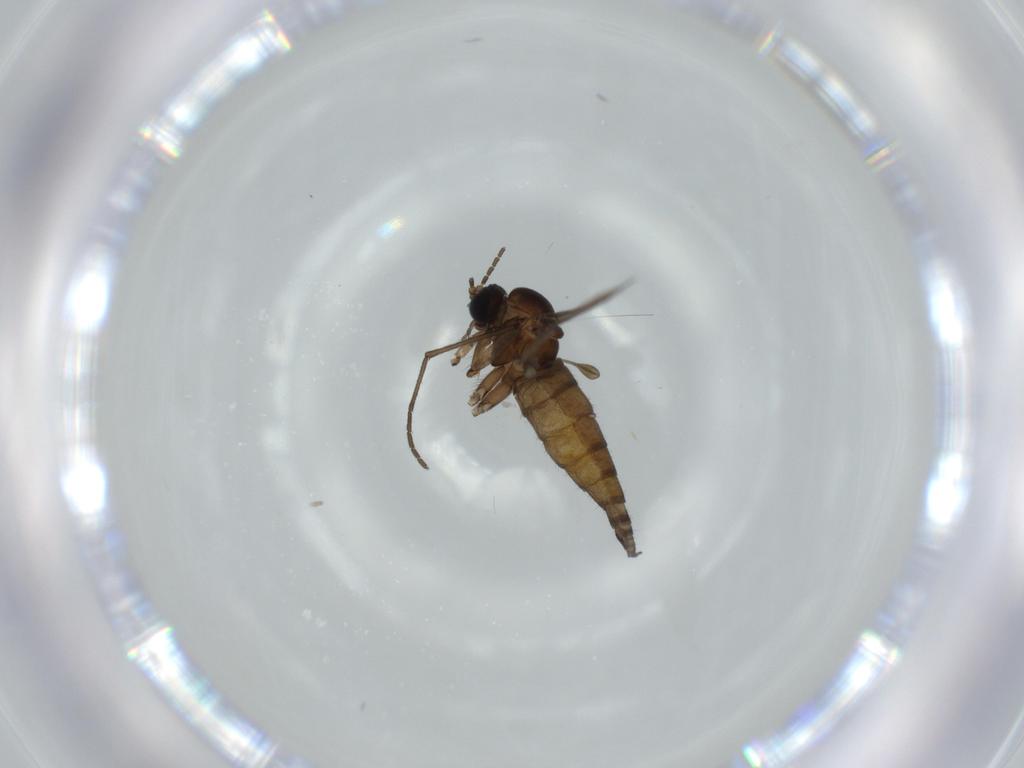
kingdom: Animalia
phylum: Arthropoda
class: Insecta
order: Diptera
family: Sciaridae
